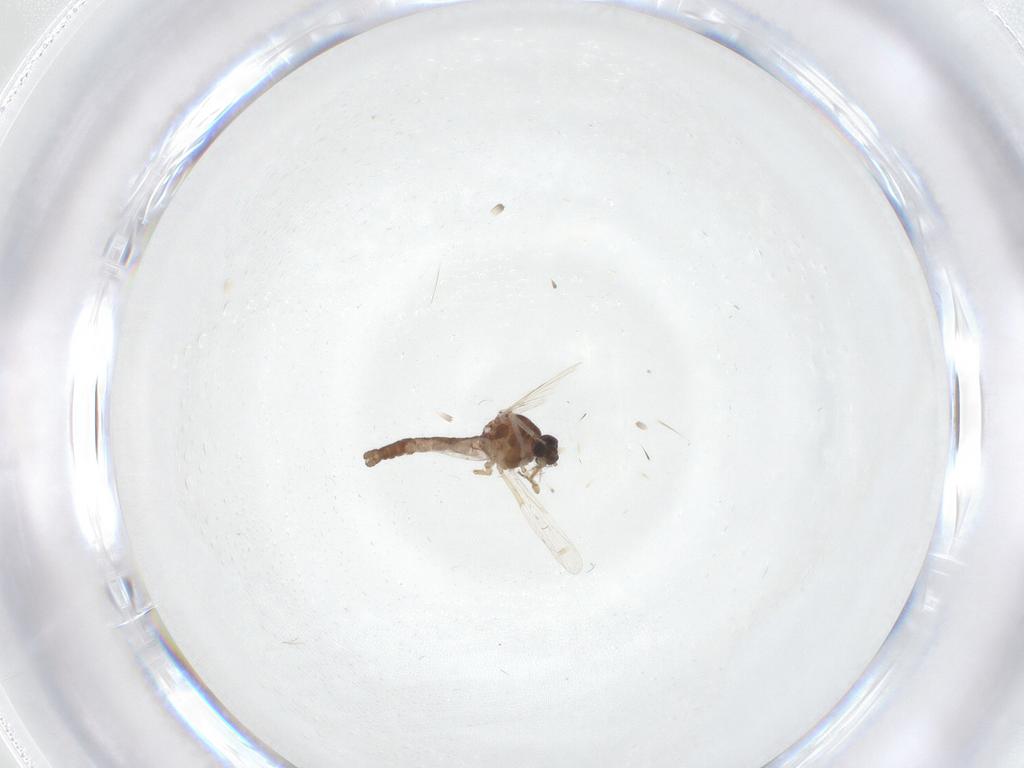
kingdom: Animalia
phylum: Arthropoda
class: Insecta
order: Diptera
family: Ceratopogonidae
